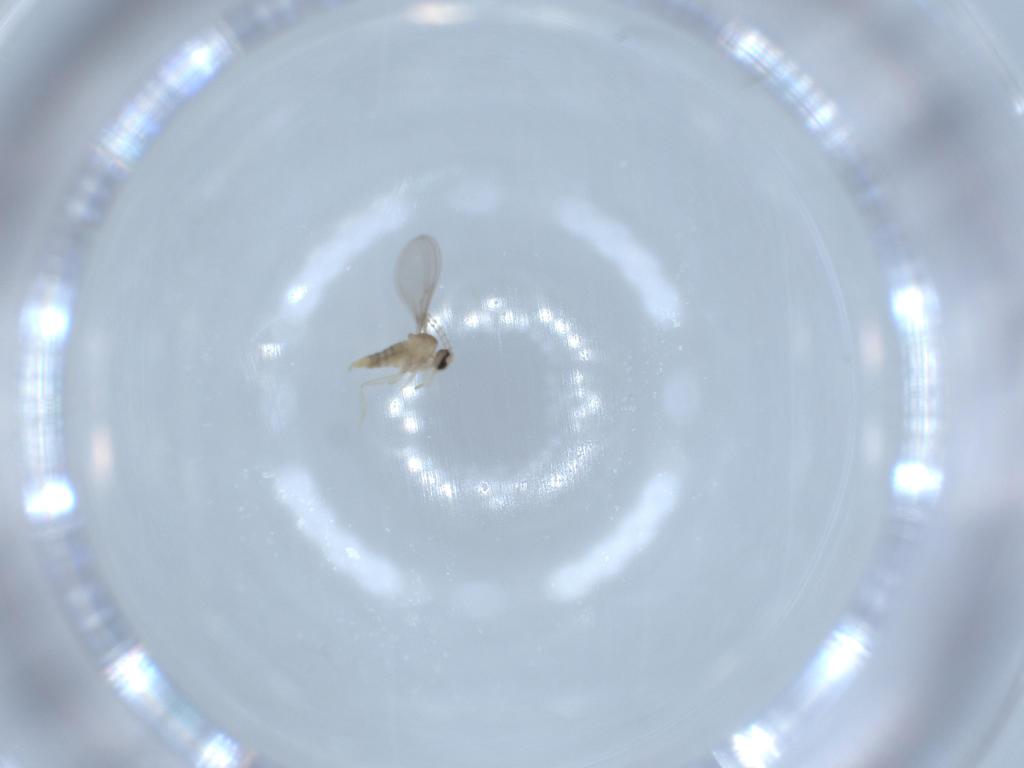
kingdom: Animalia
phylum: Arthropoda
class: Insecta
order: Diptera
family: Cecidomyiidae
